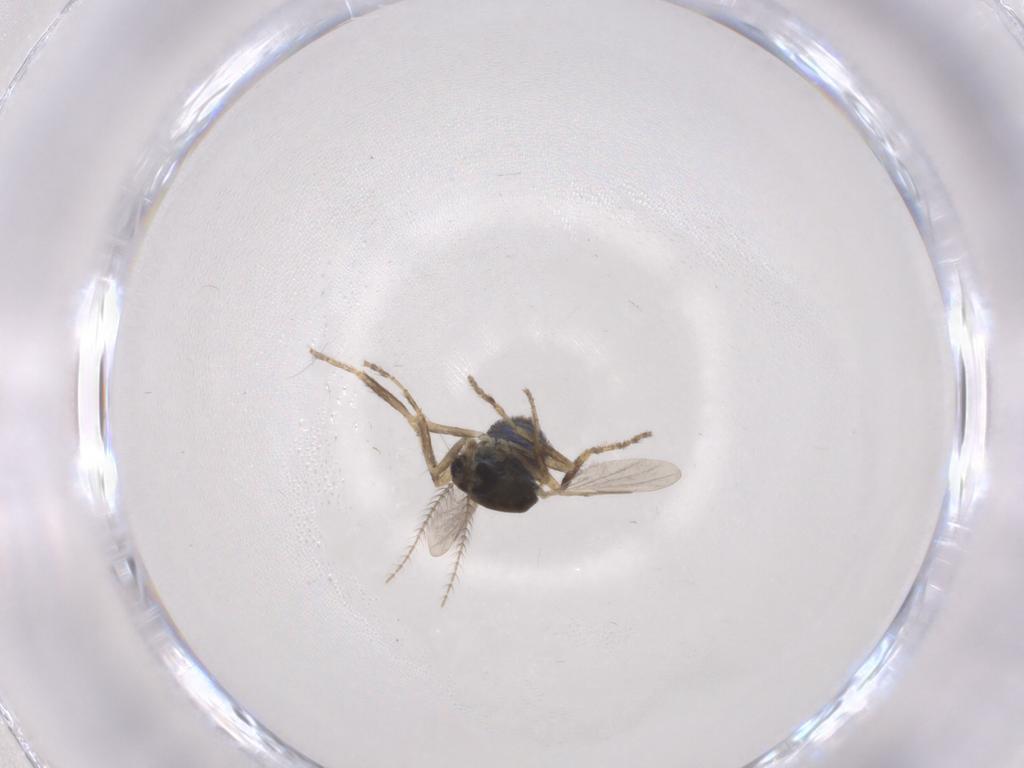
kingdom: Animalia
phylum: Arthropoda
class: Insecta
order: Diptera
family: Ceratopogonidae
